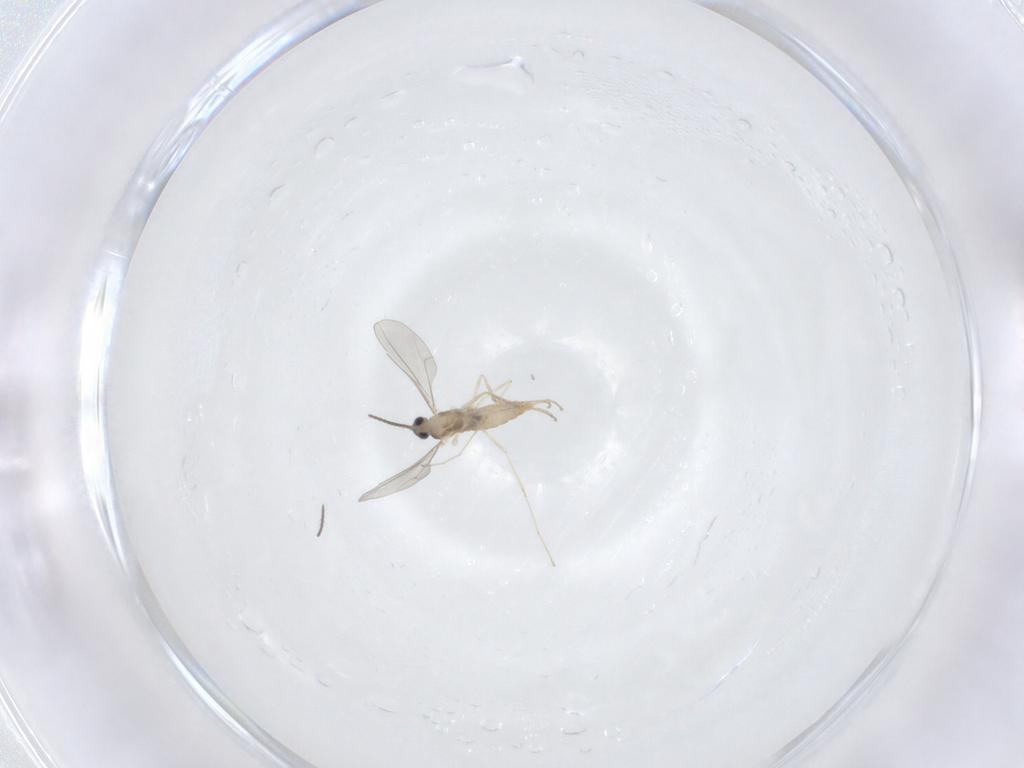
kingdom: Animalia
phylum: Arthropoda
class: Insecta
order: Diptera
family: Cecidomyiidae
